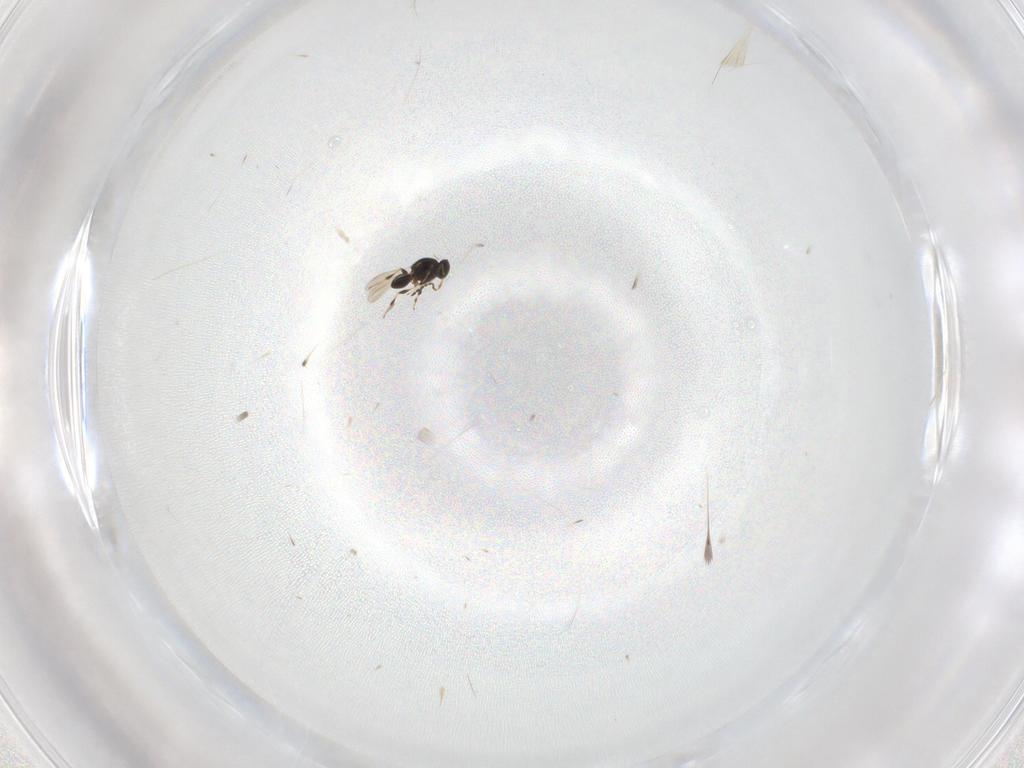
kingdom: Animalia
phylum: Arthropoda
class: Insecta
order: Hymenoptera
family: Platygastridae
